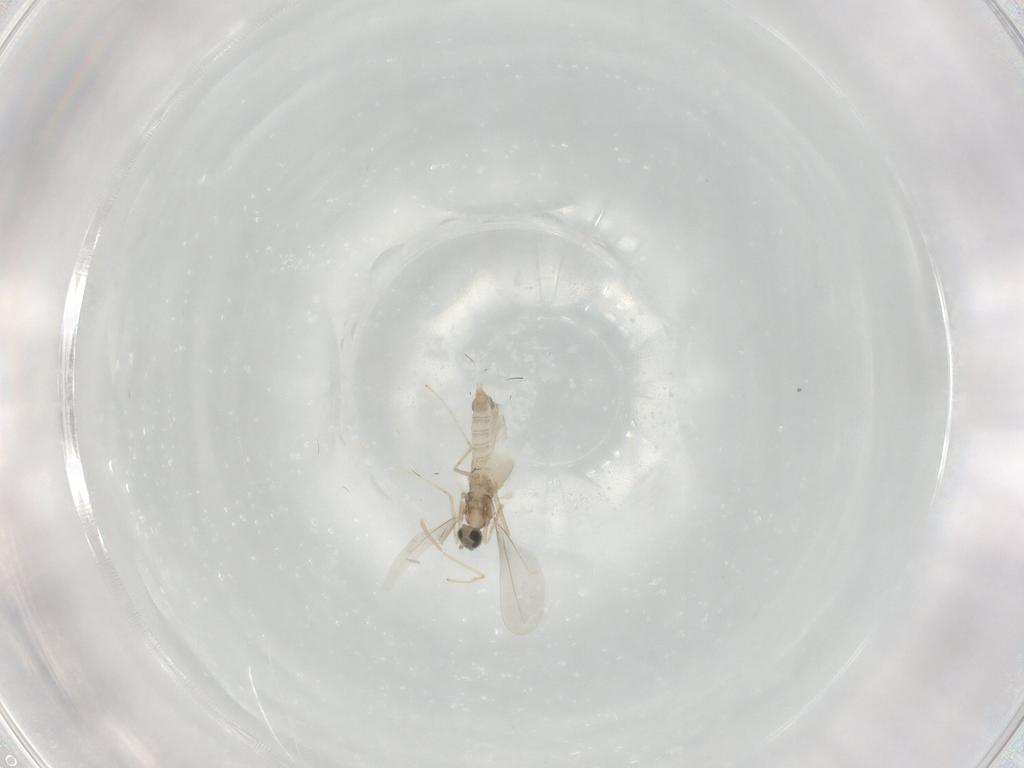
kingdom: Animalia
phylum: Arthropoda
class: Insecta
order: Diptera
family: Cecidomyiidae
